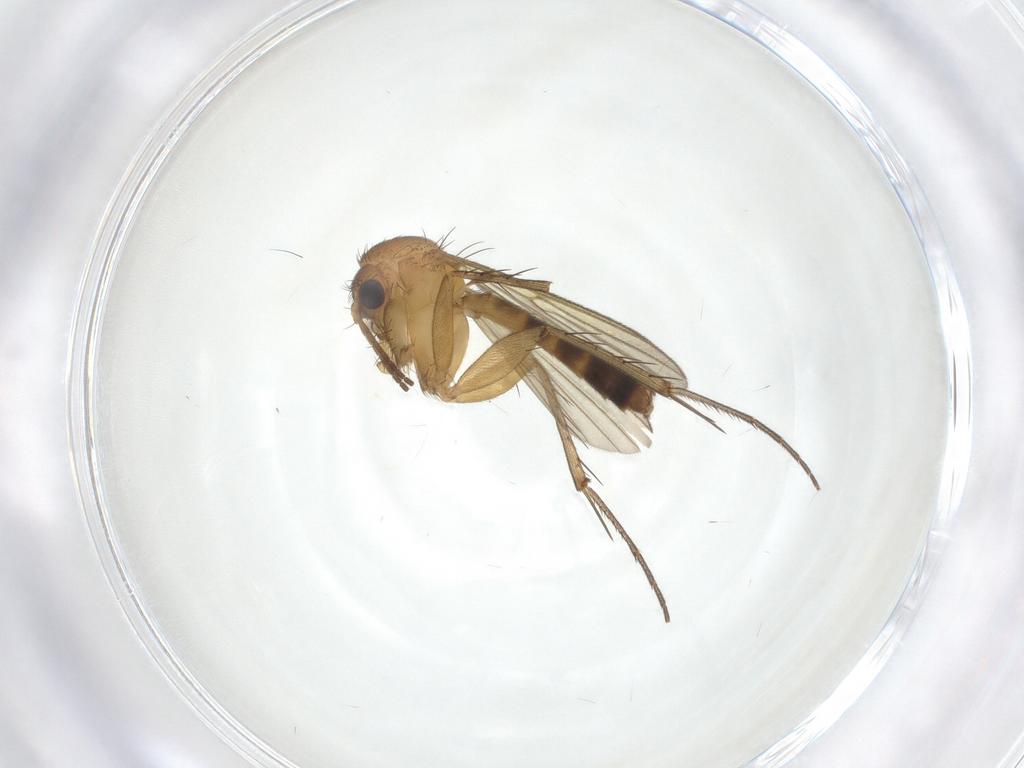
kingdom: Animalia
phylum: Arthropoda
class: Insecta
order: Diptera
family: Mycetophilidae
